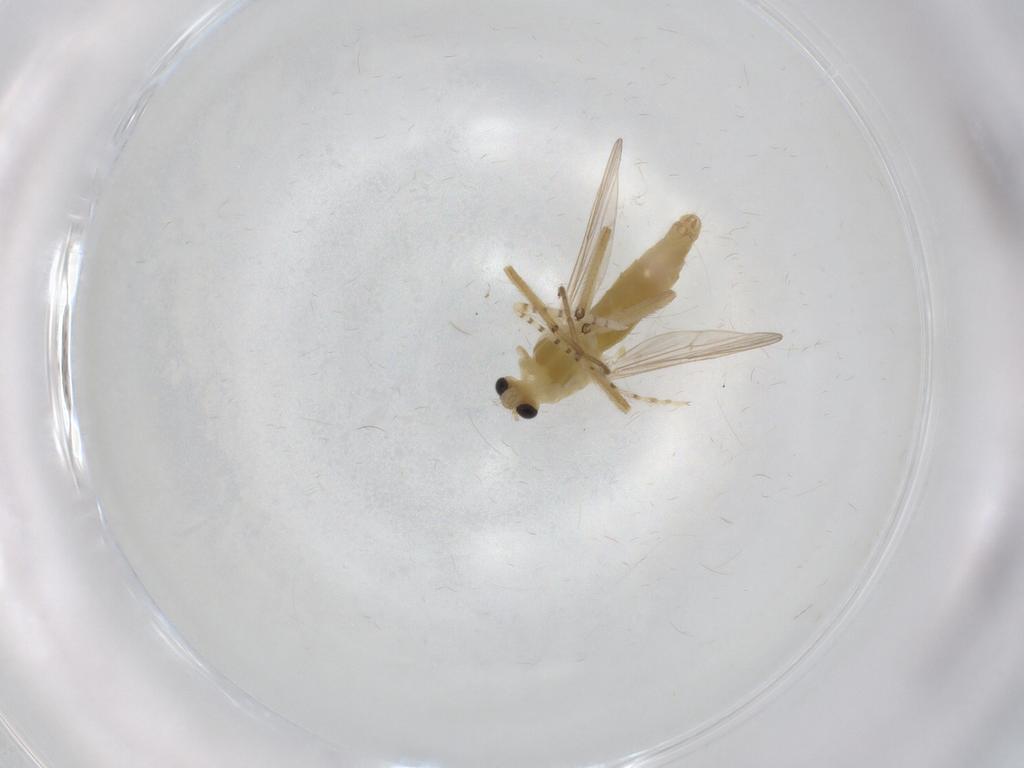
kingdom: Animalia
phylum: Arthropoda
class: Insecta
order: Diptera
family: Chironomidae
